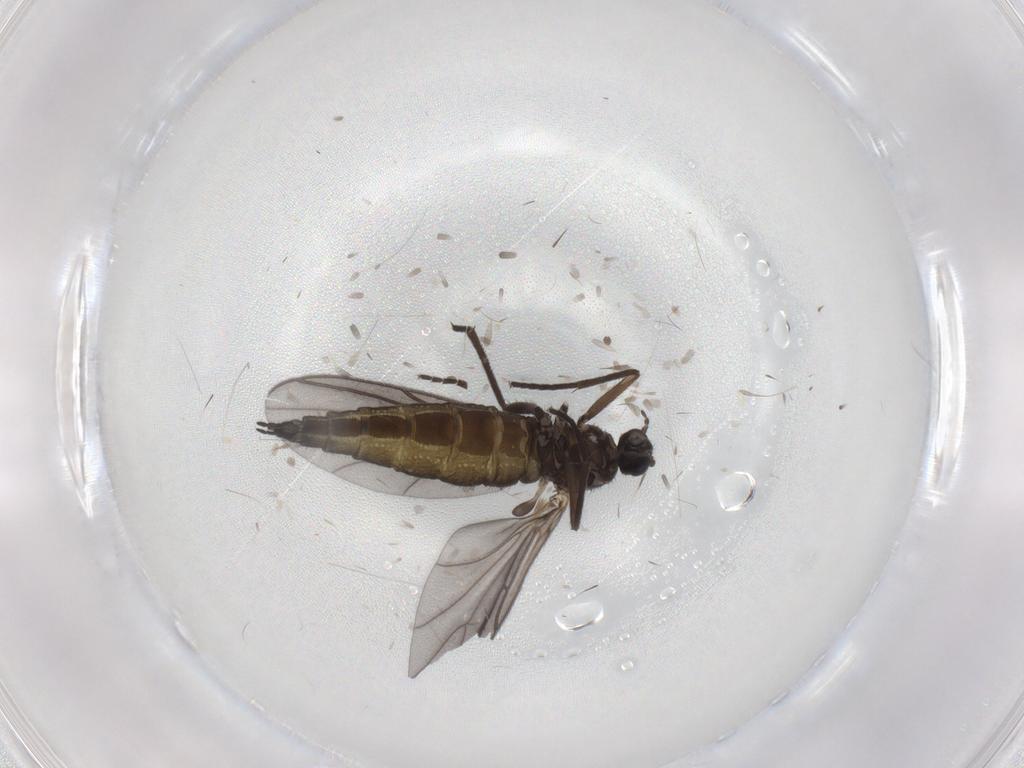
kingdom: Animalia
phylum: Arthropoda
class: Insecta
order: Diptera
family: Sciaridae
